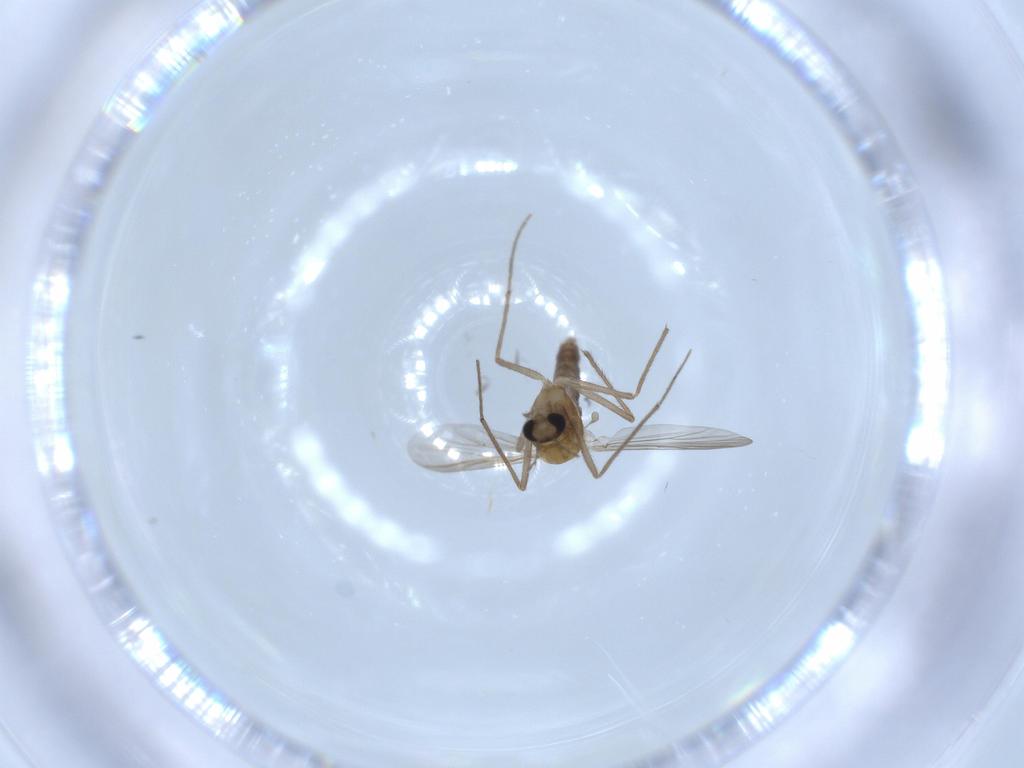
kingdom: Animalia
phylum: Arthropoda
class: Insecta
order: Diptera
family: Chironomidae
